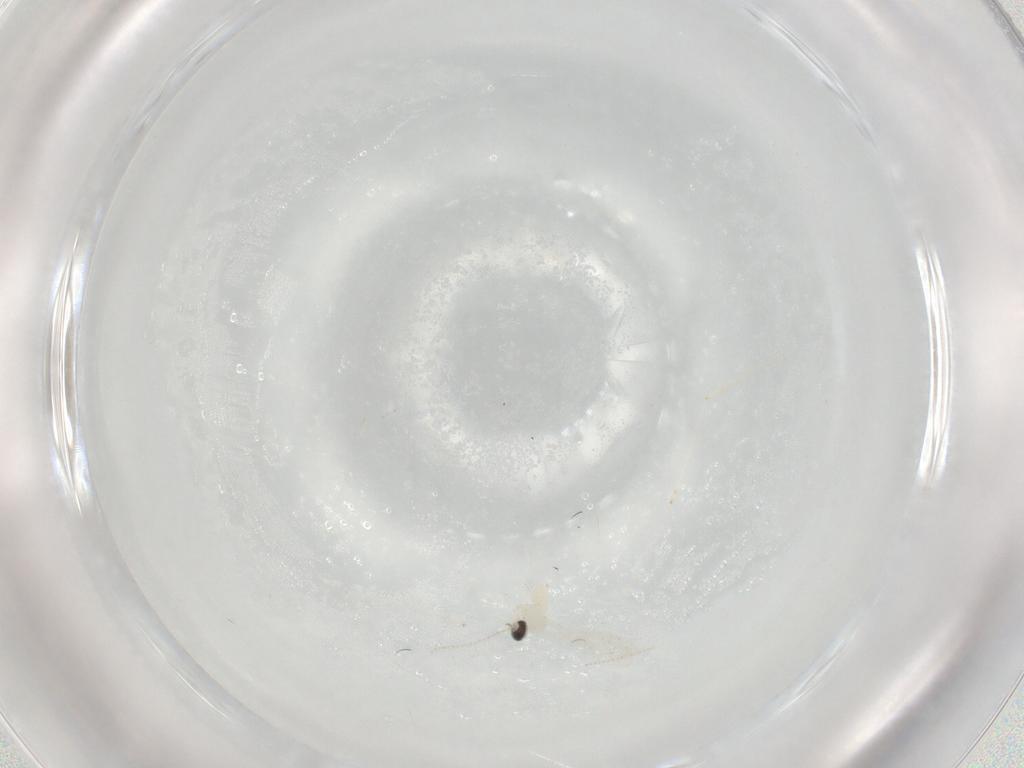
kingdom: Animalia
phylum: Arthropoda
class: Insecta
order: Diptera
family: Cecidomyiidae
